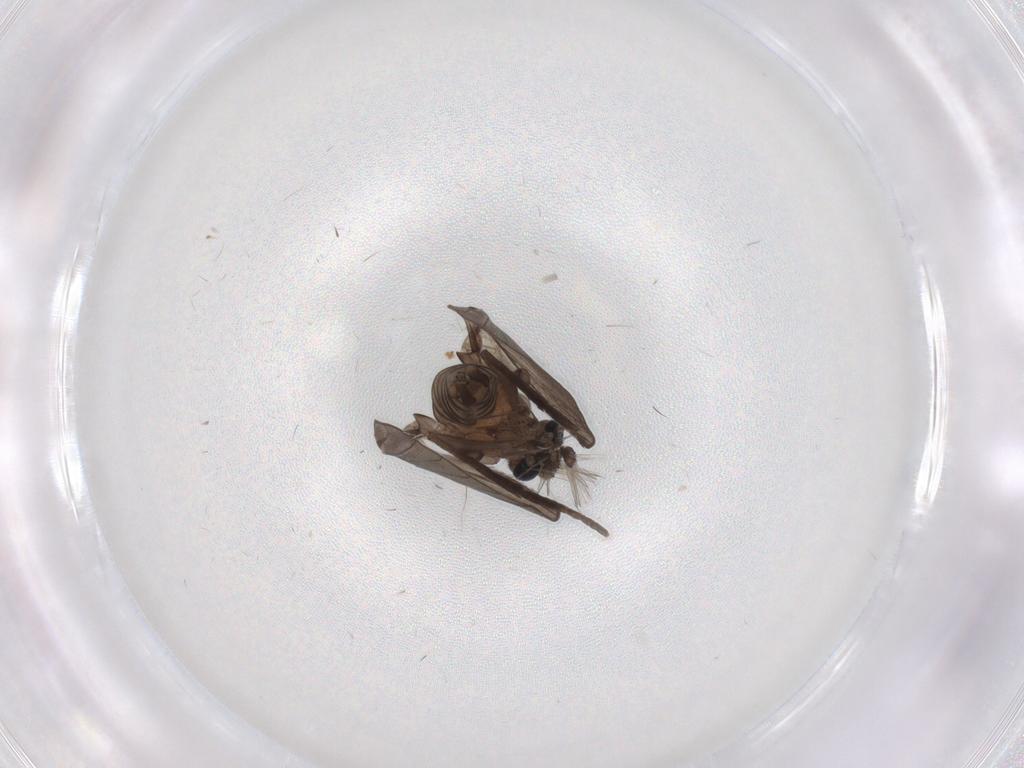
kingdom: Animalia
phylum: Arthropoda
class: Insecta
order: Diptera
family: Psychodidae
